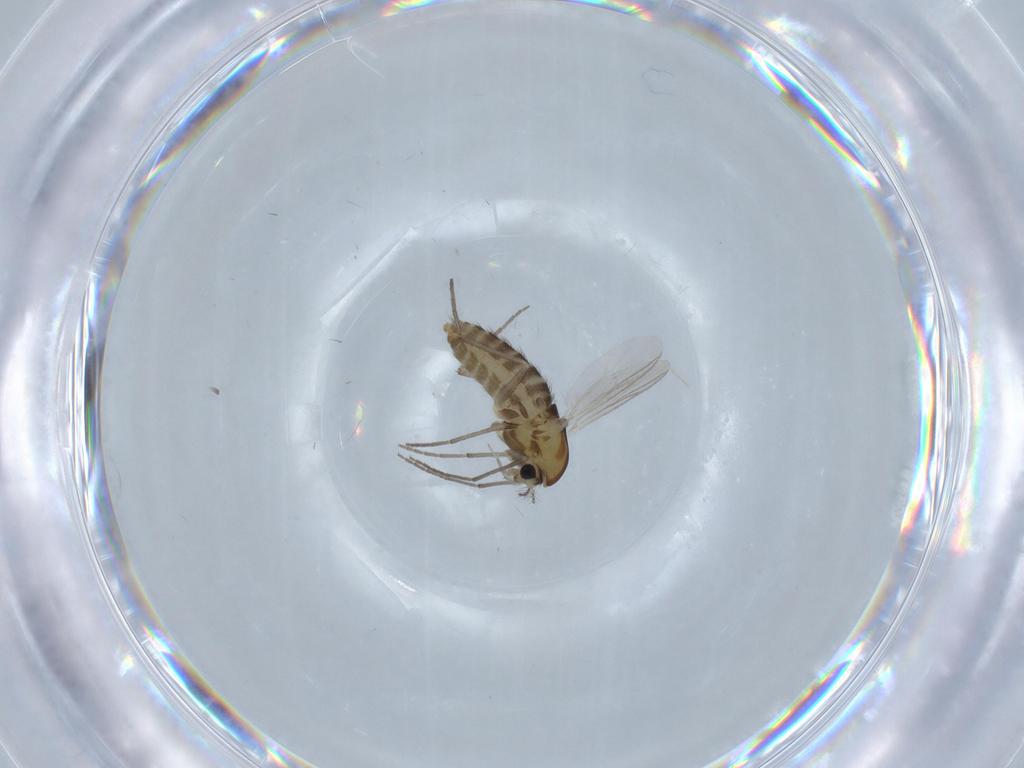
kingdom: Animalia
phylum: Arthropoda
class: Insecta
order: Diptera
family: Chironomidae
